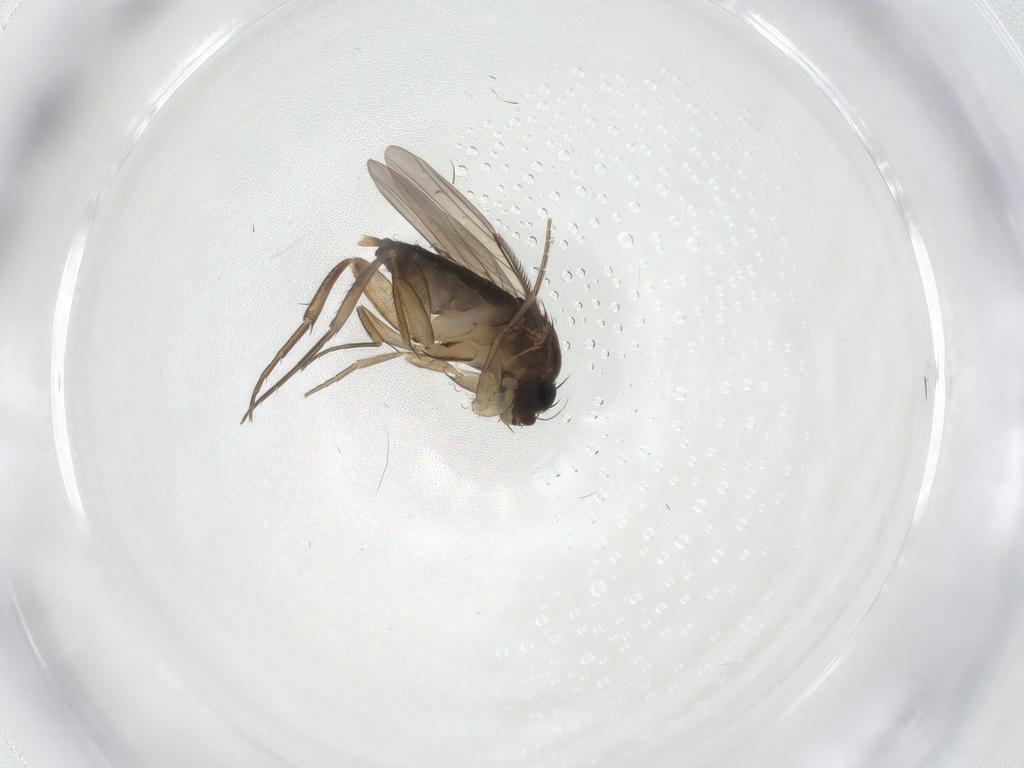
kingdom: Animalia
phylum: Arthropoda
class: Insecta
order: Diptera
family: Phoridae
